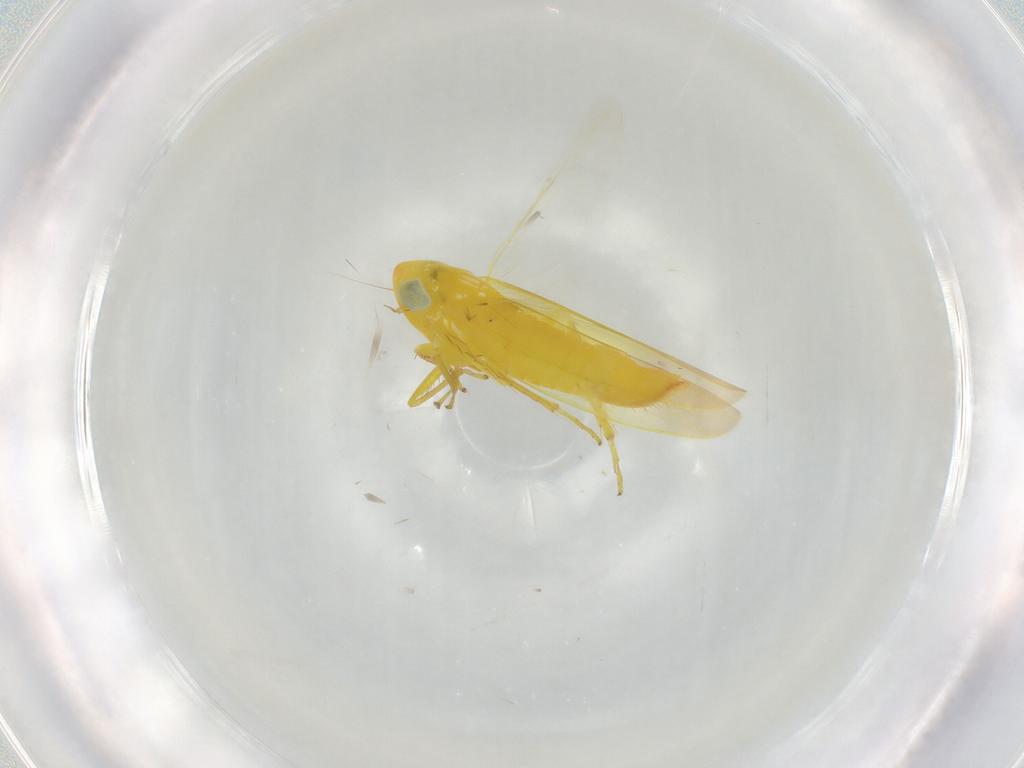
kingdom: Animalia
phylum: Arthropoda
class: Insecta
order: Hemiptera
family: Cicadellidae
